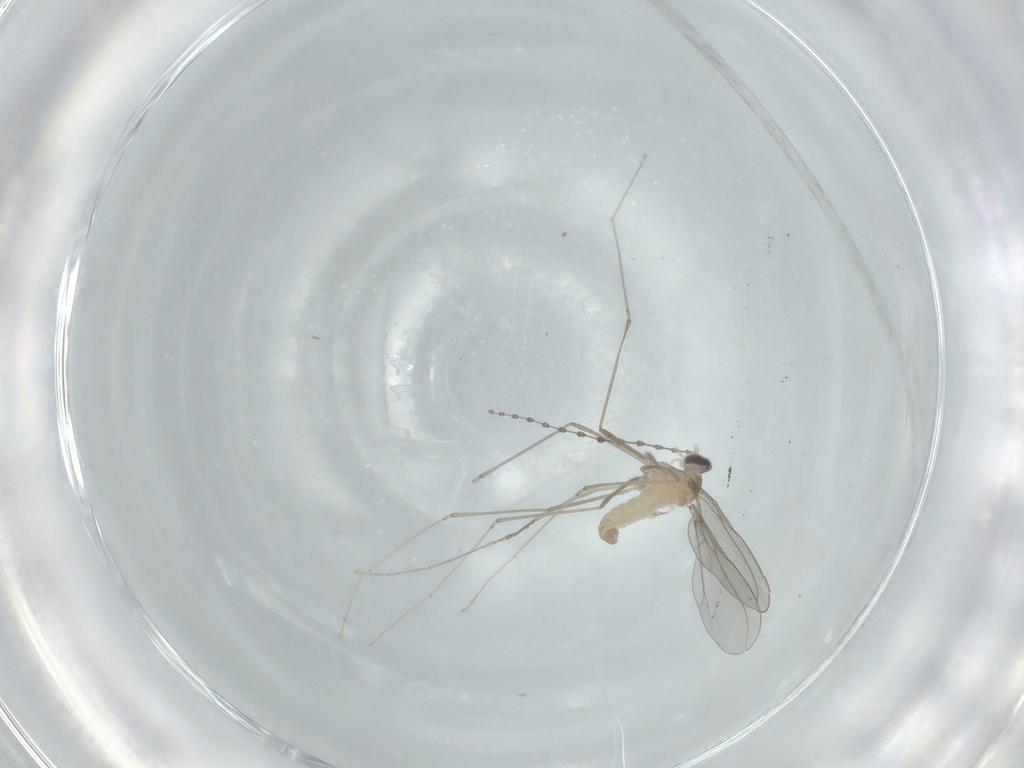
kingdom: Animalia
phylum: Arthropoda
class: Insecta
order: Diptera
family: Cecidomyiidae
